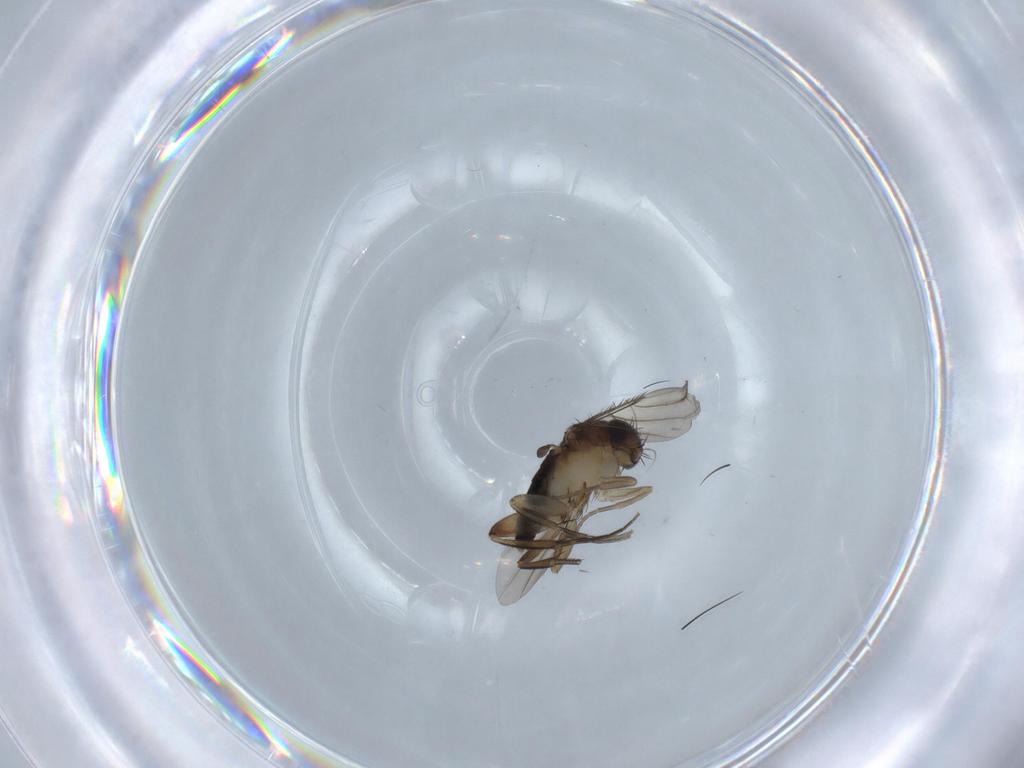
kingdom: Animalia
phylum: Arthropoda
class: Insecta
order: Diptera
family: Phoridae
